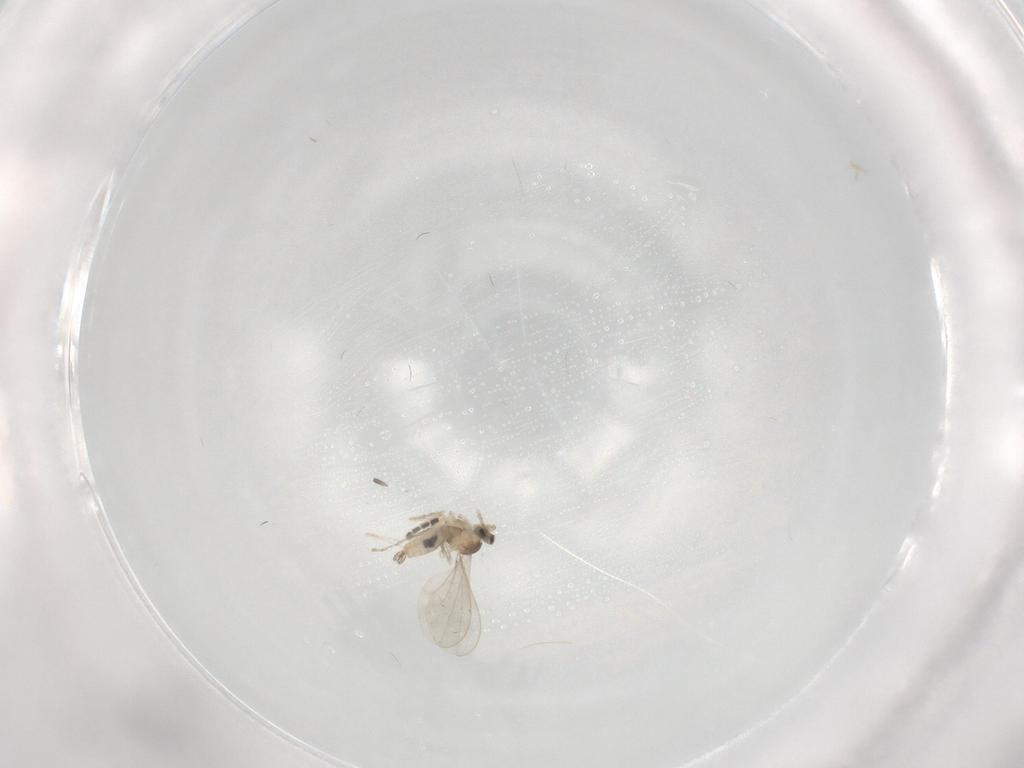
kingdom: Animalia
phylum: Arthropoda
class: Insecta
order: Diptera
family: Cecidomyiidae
